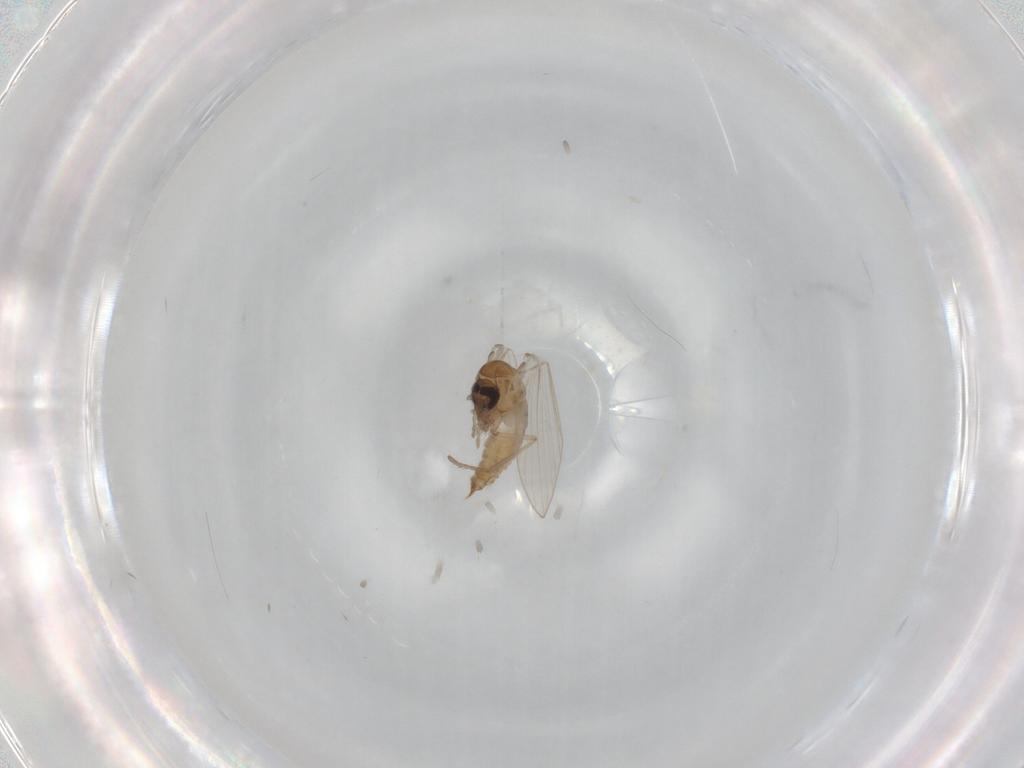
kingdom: Animalia
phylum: Arthropoda
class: Insecta
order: Diptera
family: Psychodidae
